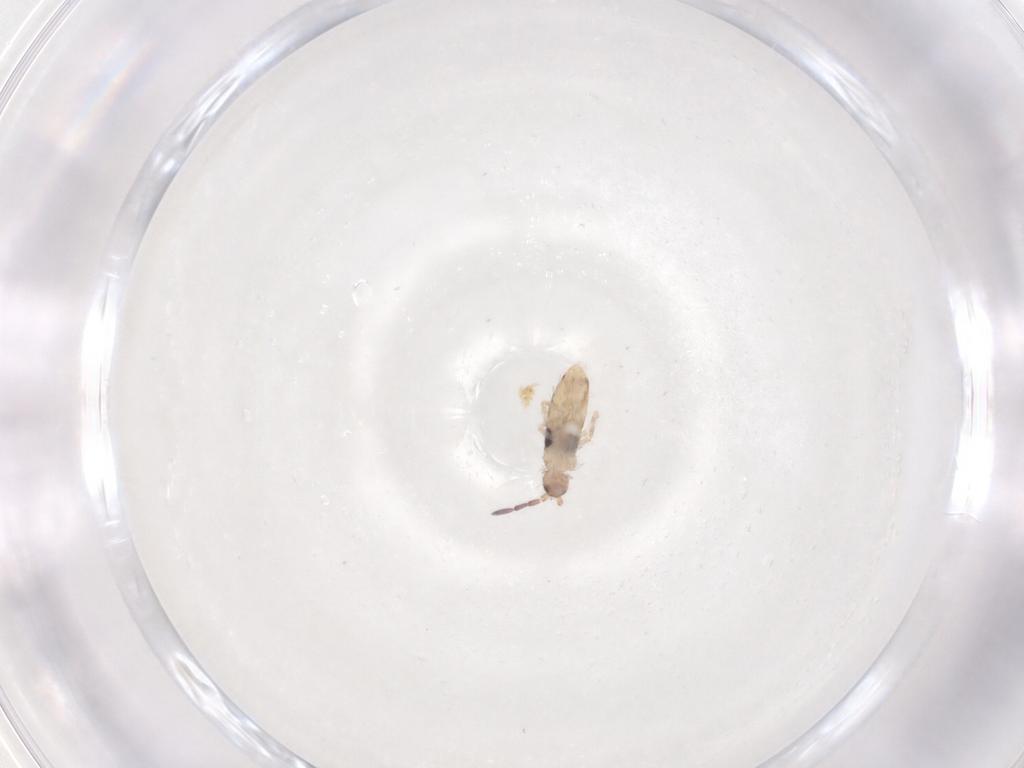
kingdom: Animalia
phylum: Arthropoda
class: Collembola
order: Entomobryomorpha
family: Entomobryidae
